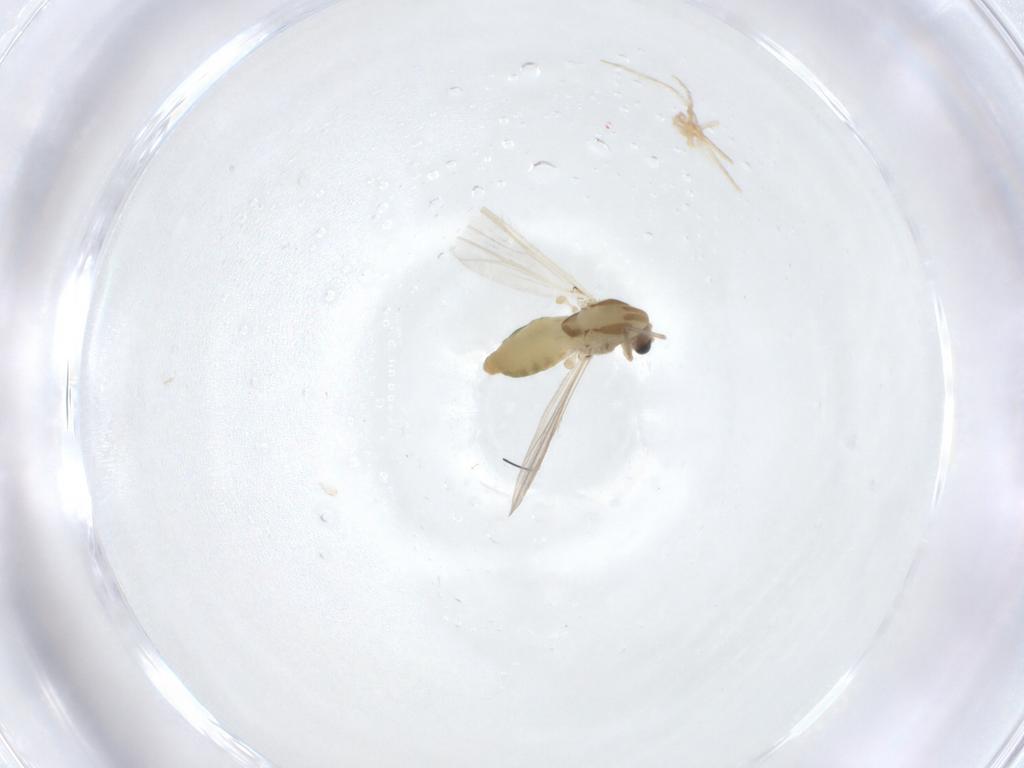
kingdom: Animalia
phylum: Arthropoda
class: Insecta
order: Diptera
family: Chironomidae
